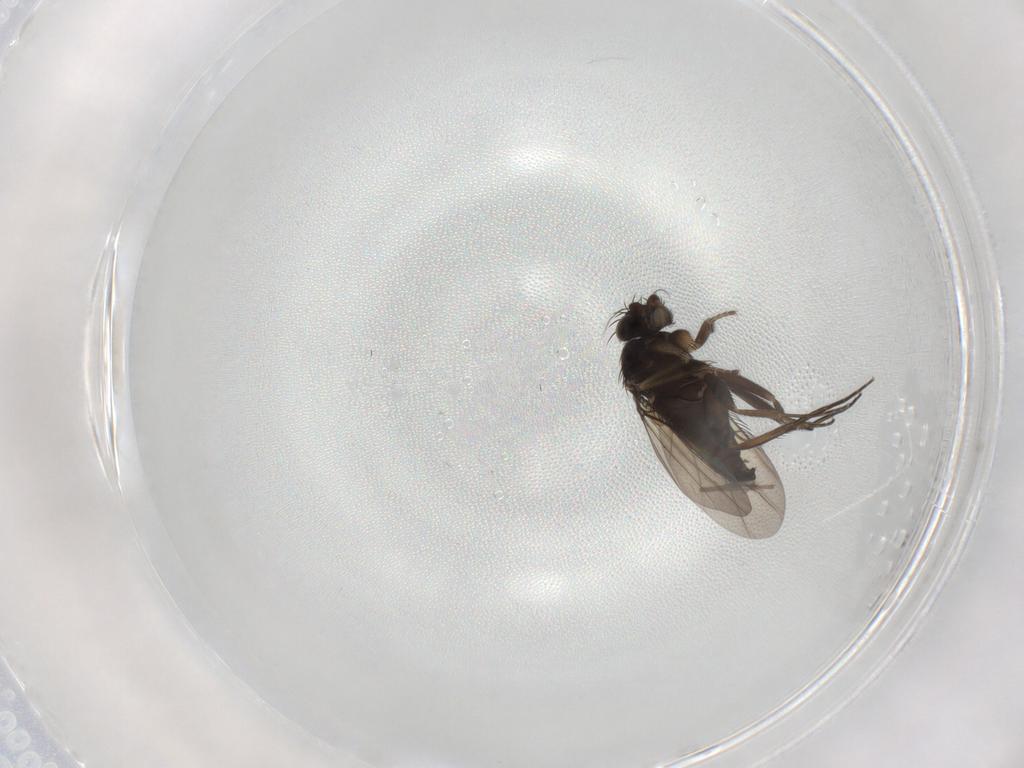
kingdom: Animalia
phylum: Arthropoda
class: Insecta
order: Diptera
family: Phoridae
